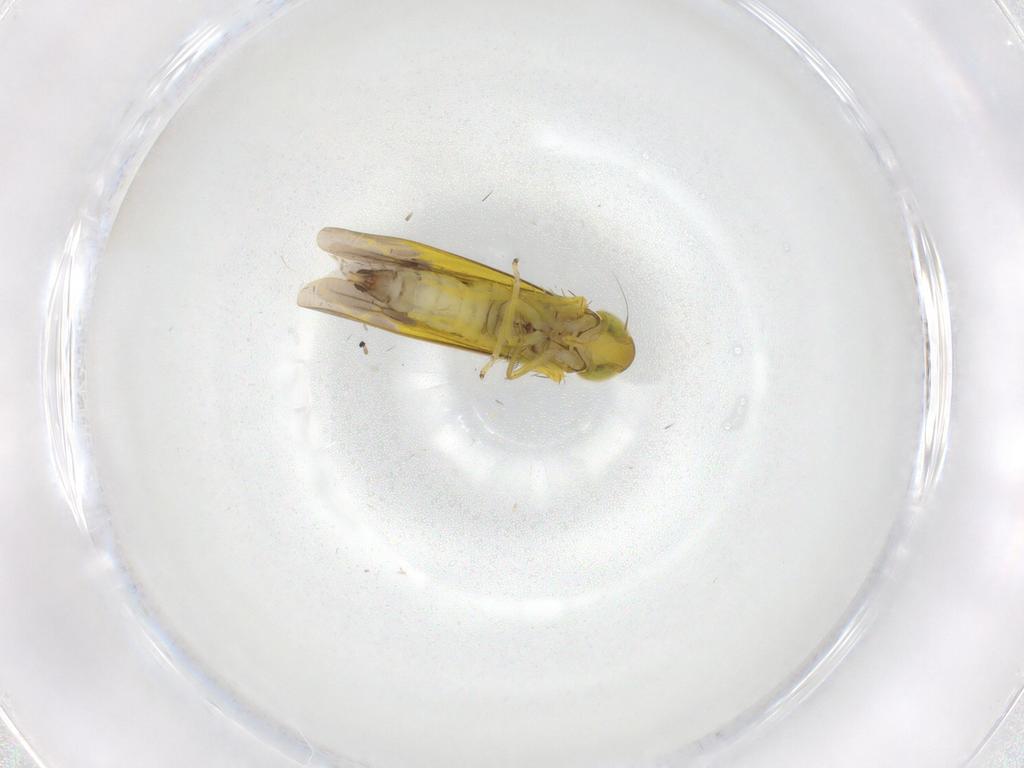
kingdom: Animalia
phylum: Arthropoda
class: Insecta
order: Hemiptera
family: Cicadellidae
